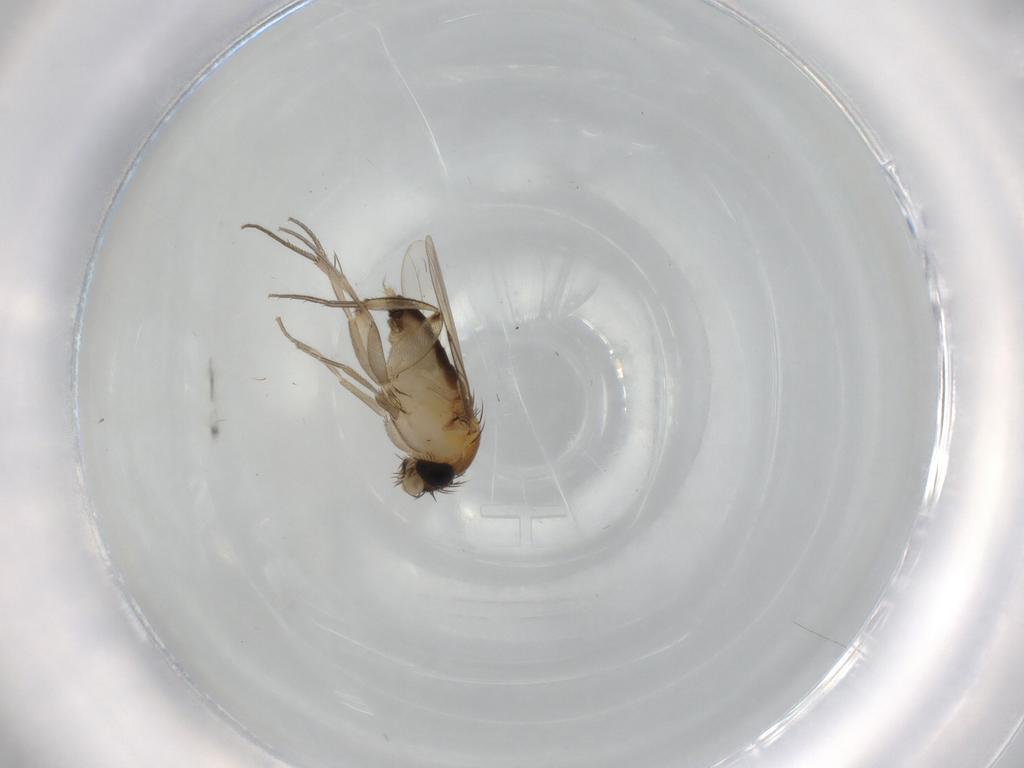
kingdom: Animalia
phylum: Arthropoda
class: Insecta
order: Diptera
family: Phoridae
